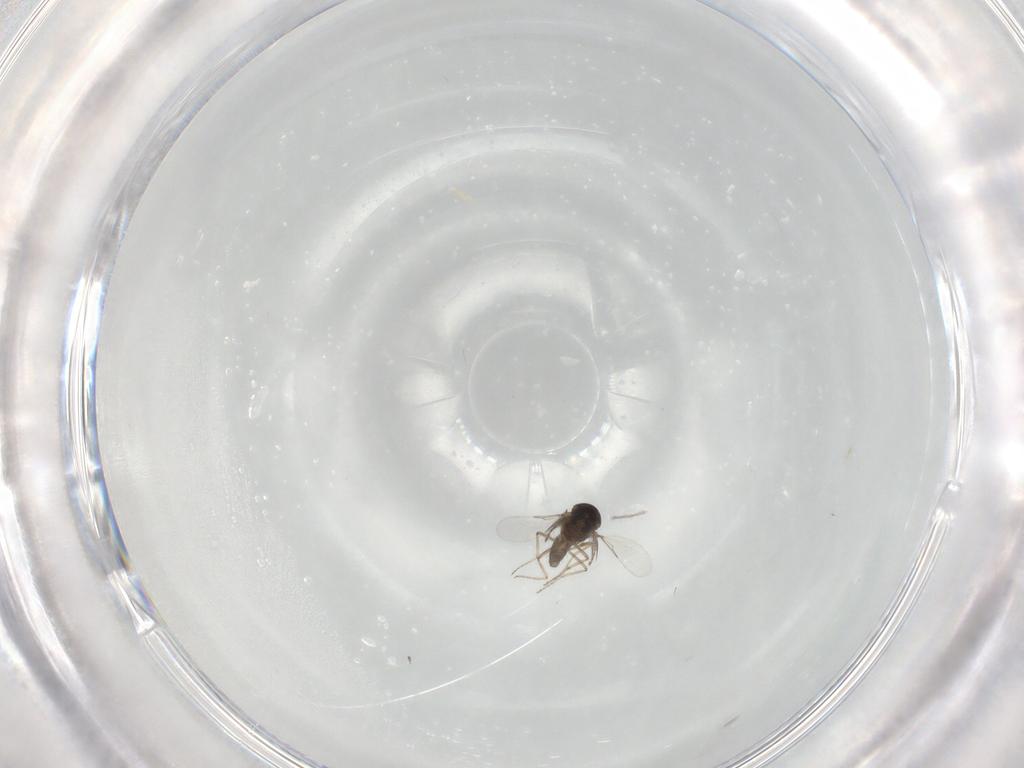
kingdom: Animalia
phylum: Arthropoda
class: Insecta
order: Diptera
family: Ceratopogonidae
